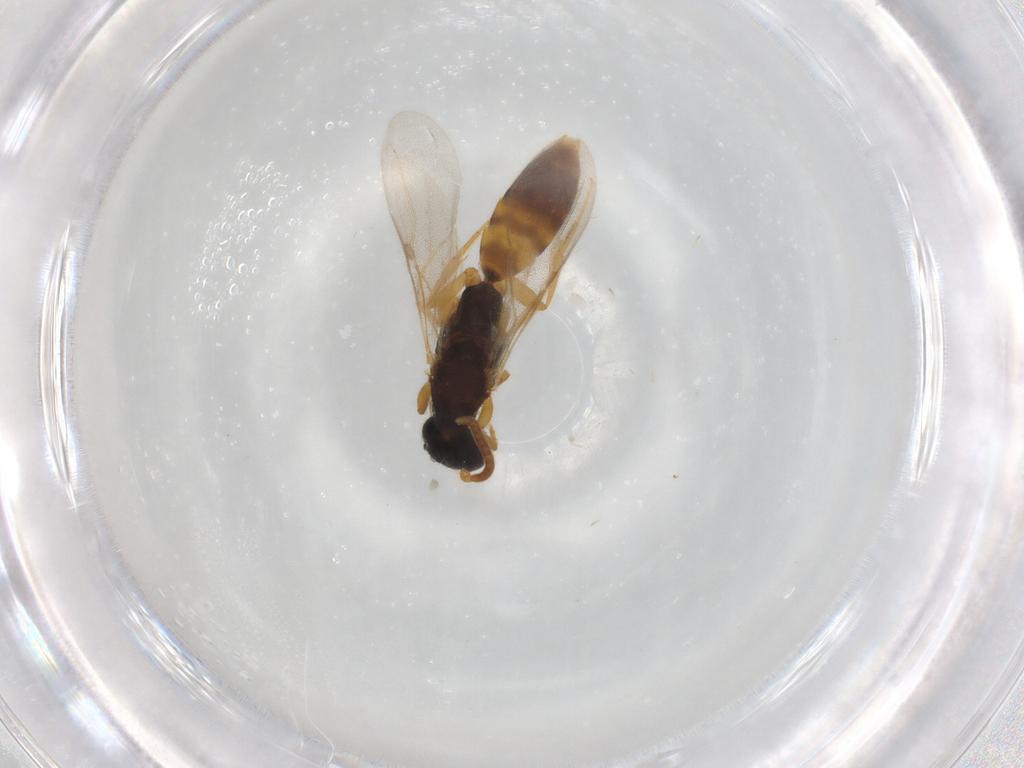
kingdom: Animalia
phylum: Arthropoda
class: Insecta
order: Hymenoptera
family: Bethylidae
